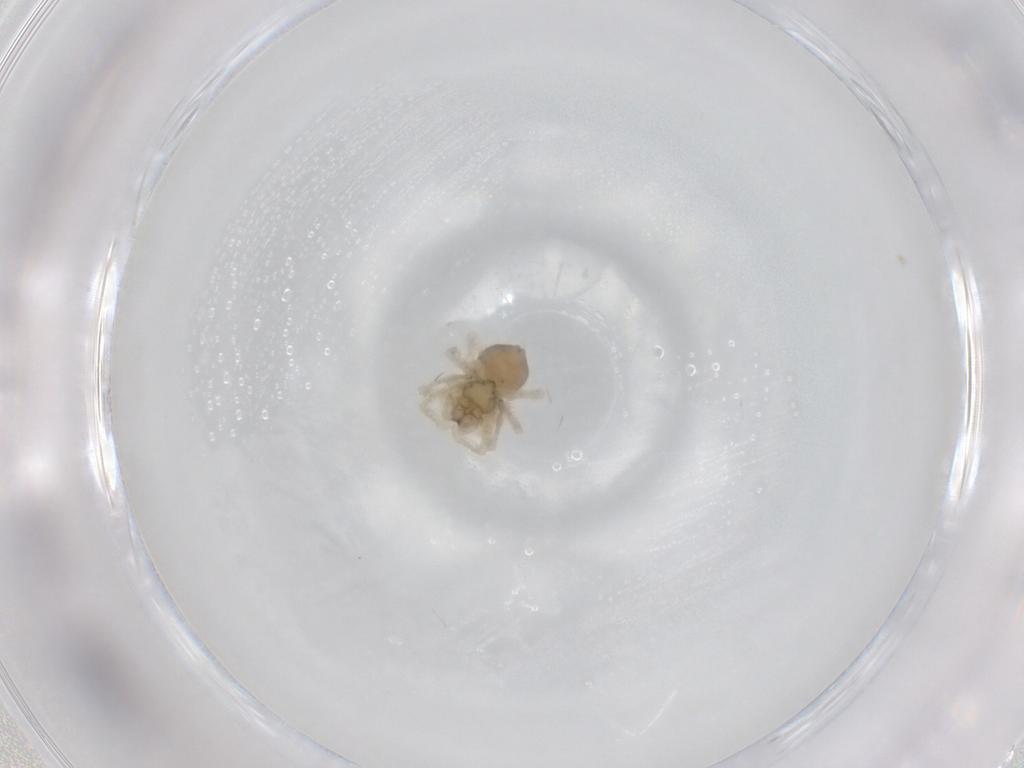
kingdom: Animalia
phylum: Arthropoda
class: Arachnida
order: Araneae
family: Linyphiidae
